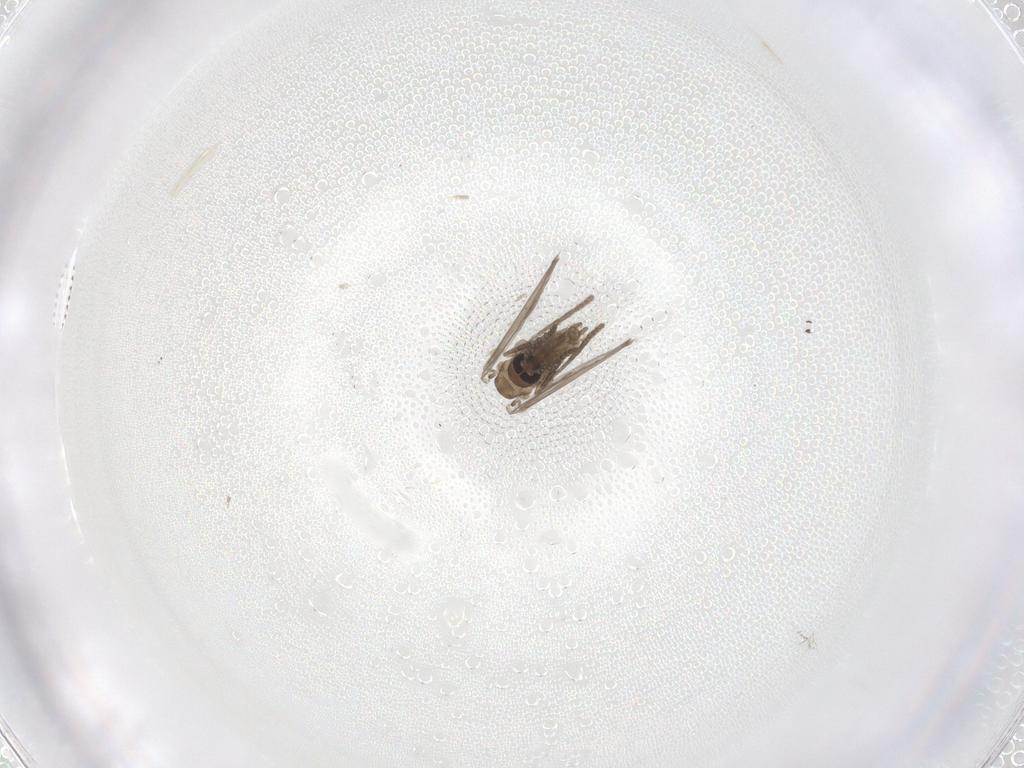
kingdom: Animalia
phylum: Arthropoda
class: Insecta
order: Diptera
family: Psychodidae
